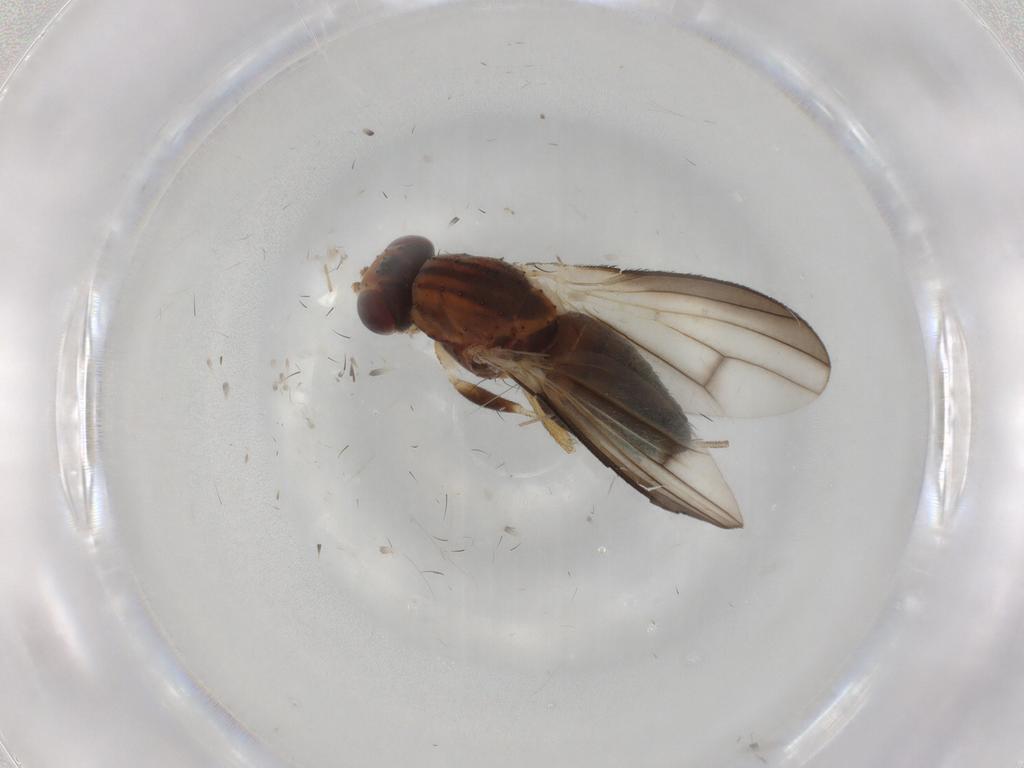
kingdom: Animalia
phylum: Arthropoda
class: Insecta
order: Diptera
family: Heleomyzidae
